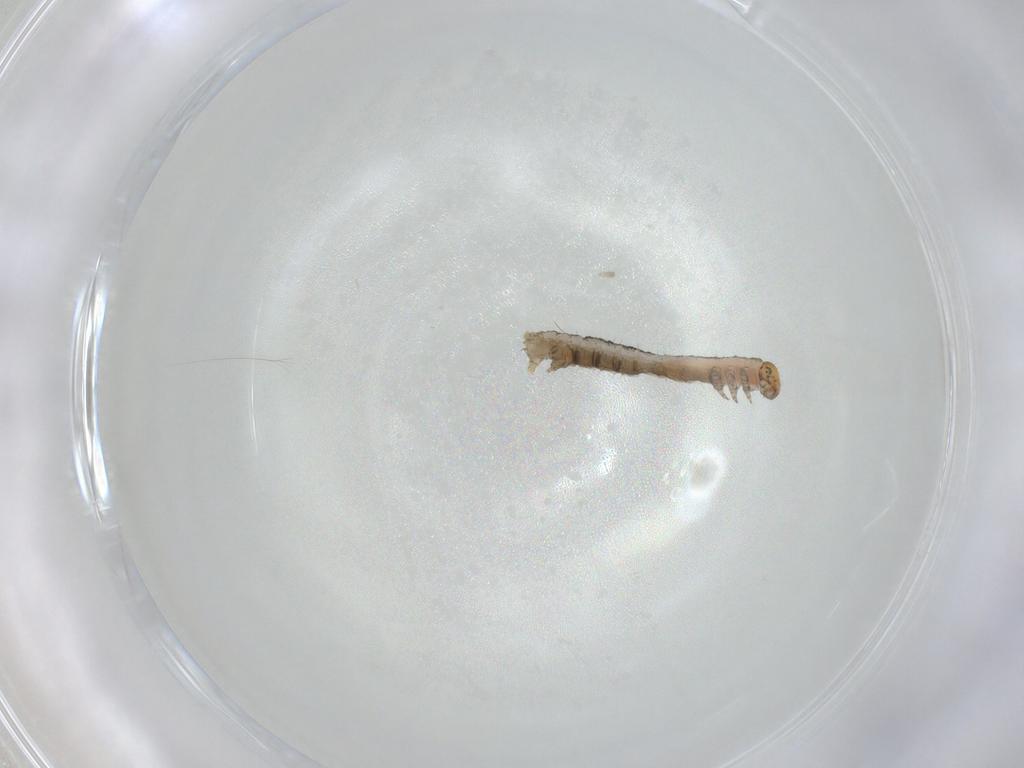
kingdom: Animalia
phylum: Arthropoda
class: Insecta
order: Lepidoptera
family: Geometridae
